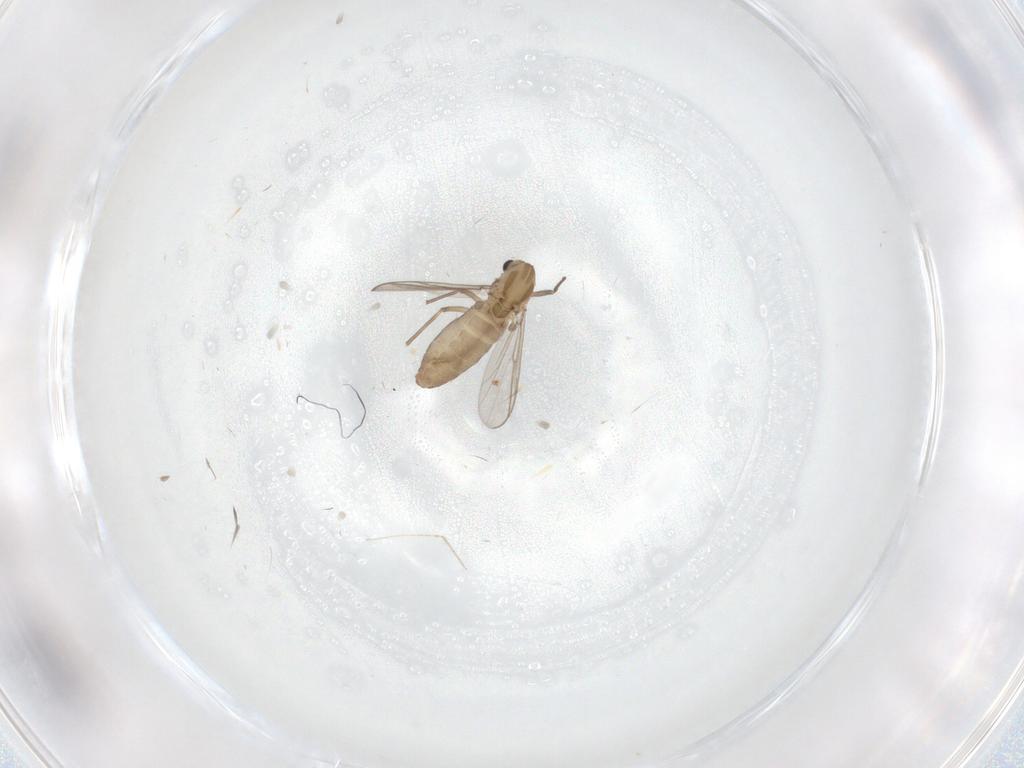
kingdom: Animalia
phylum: Arthropoda
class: Insecta
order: Diptera
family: Chironomidae
